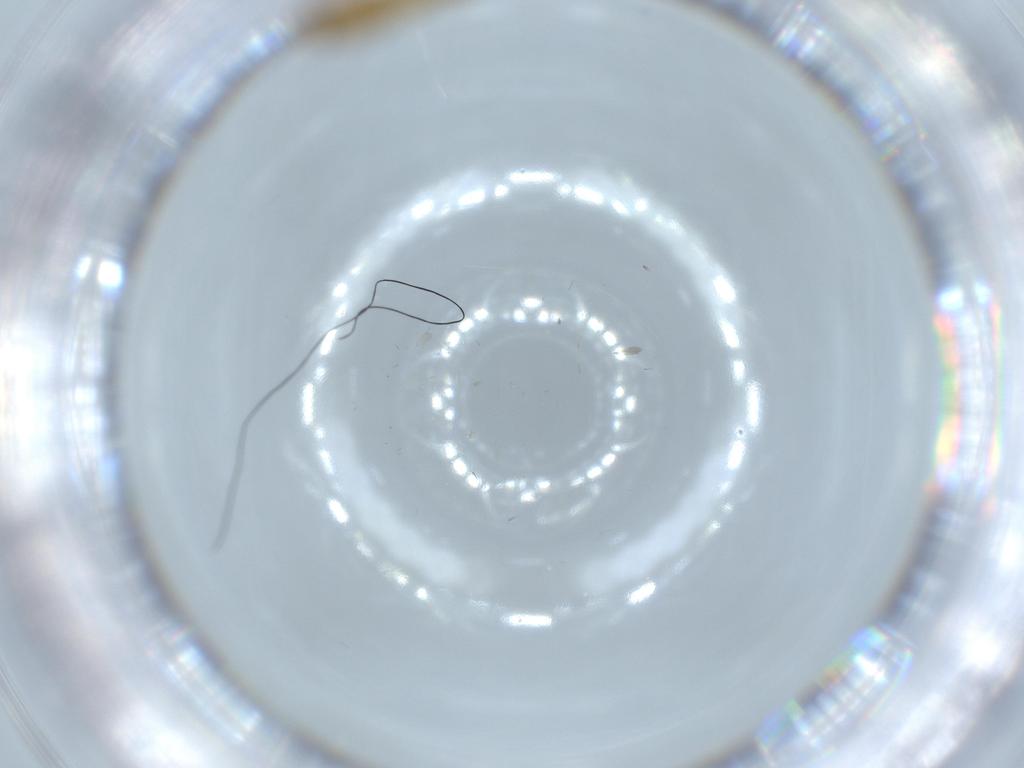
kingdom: Animalia
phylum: Arthropoda
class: Insecta
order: Diptera
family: Chironomidae
